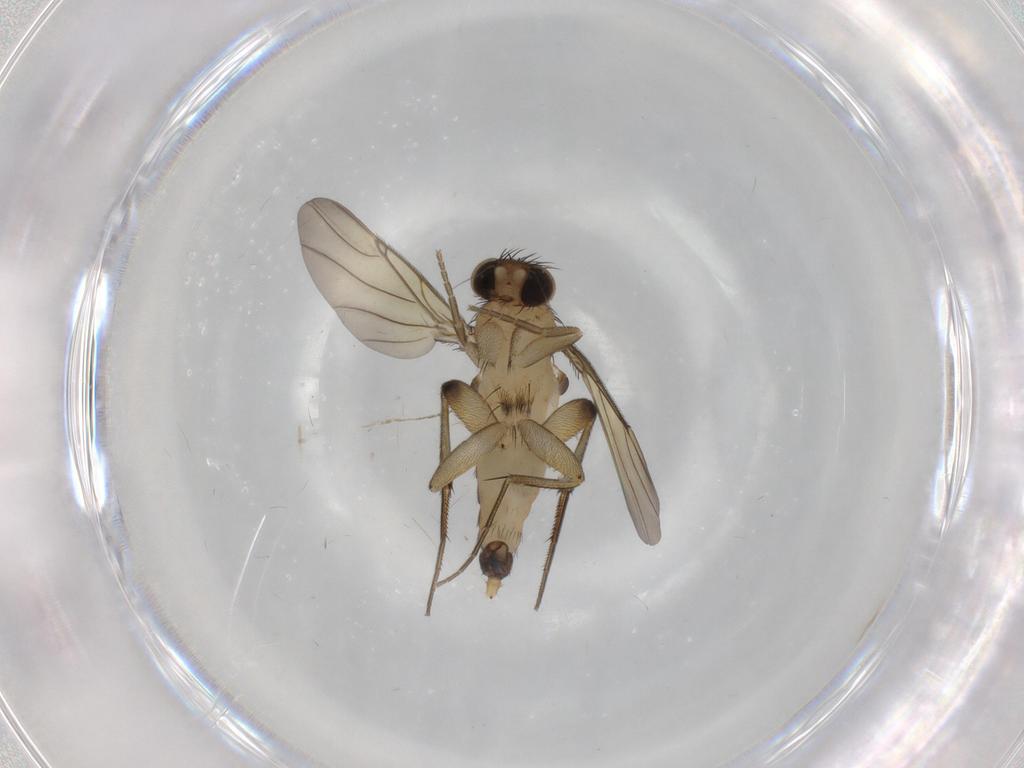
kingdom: Animalia
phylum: Arthropoda
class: Insecta
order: Diptera
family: Phoridae
